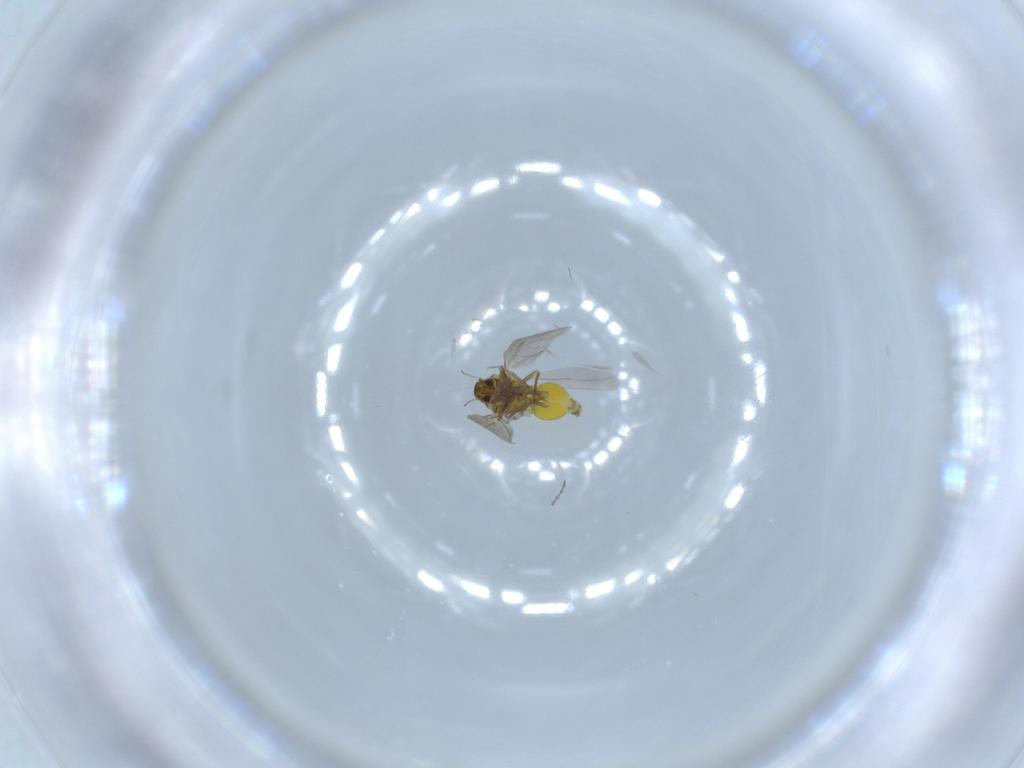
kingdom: Animalia
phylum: Arthropoda
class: Insecta
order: Hemiptera
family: Aleyrodidae
